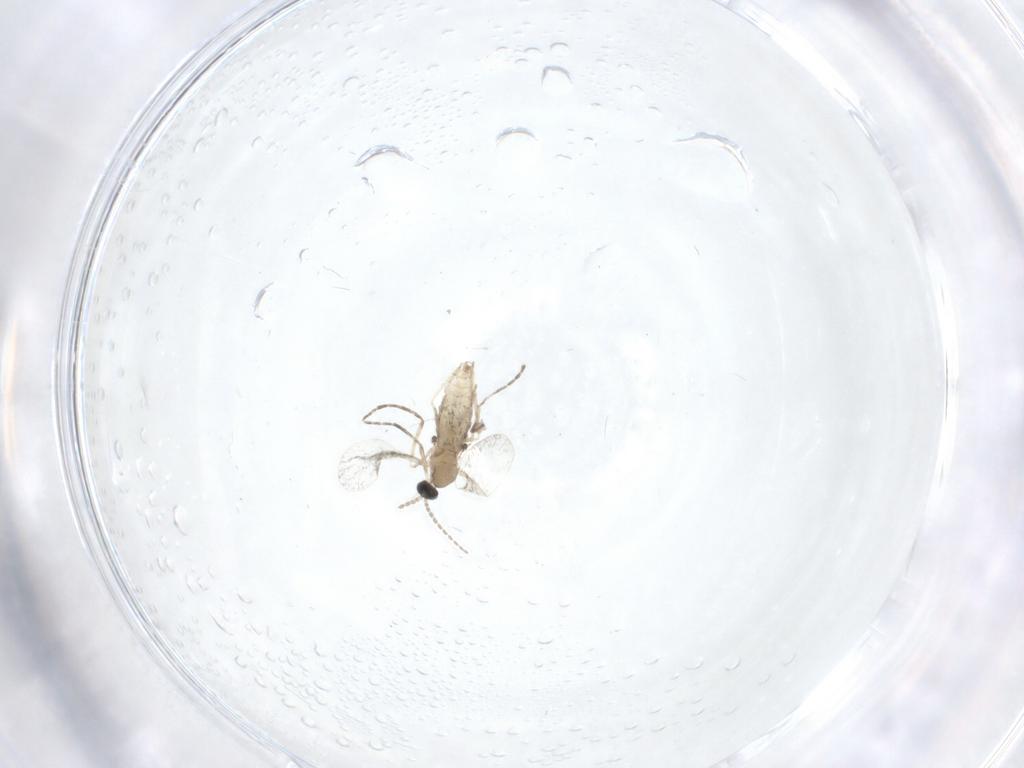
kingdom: Animalia
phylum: Arthropoda
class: Insecta
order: Diptera
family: Cecidomyiidae
